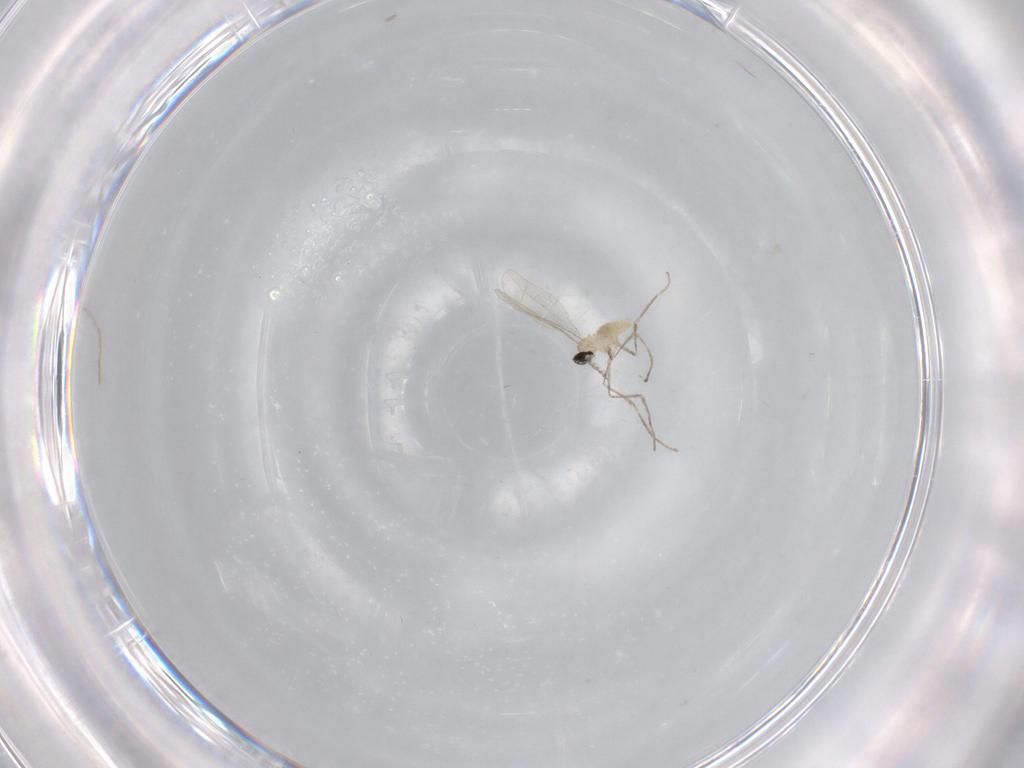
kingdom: Animalia
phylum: Arthropoda
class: Insecta
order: Diptera
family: Cecidomyiidae
